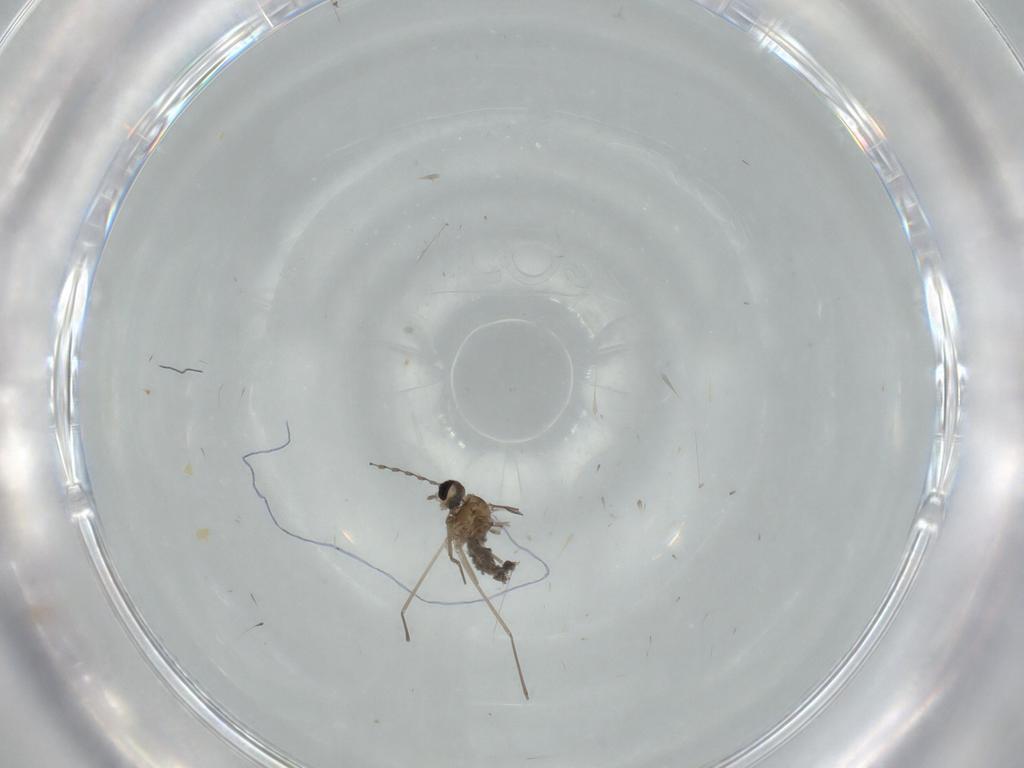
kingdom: Animalia
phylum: Arthropoda
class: Insecta
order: Diptera
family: Cecidomyiidae
